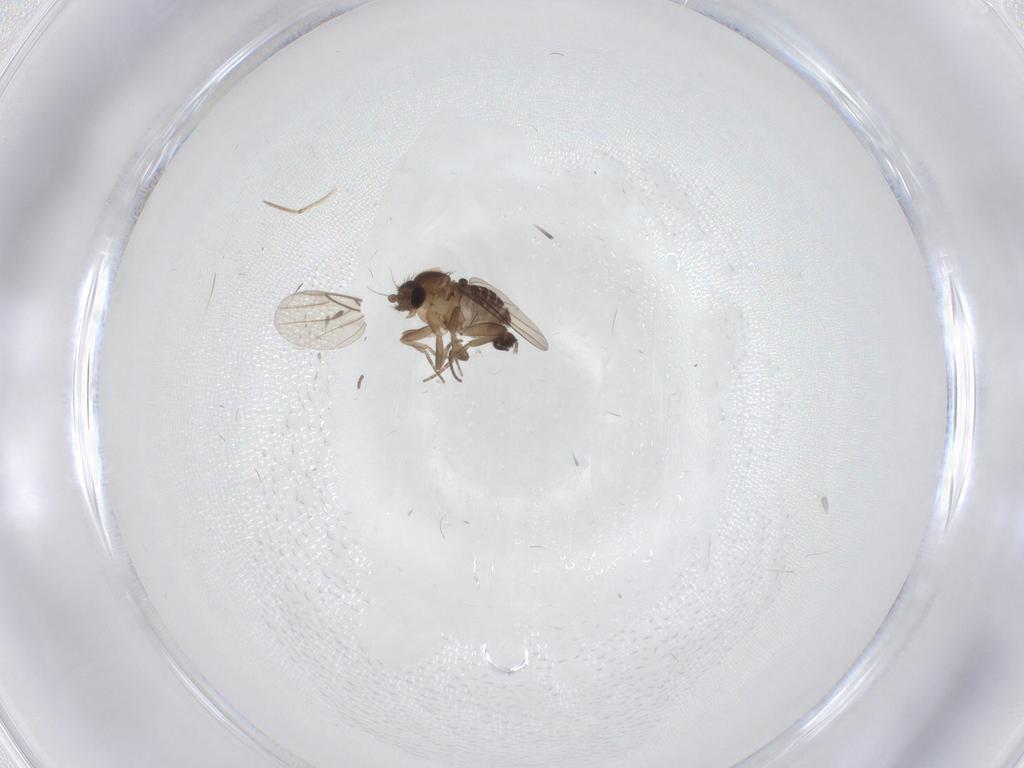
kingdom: Animalia
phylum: Arthropoda
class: Insecta
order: Diptera
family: Phoridae
